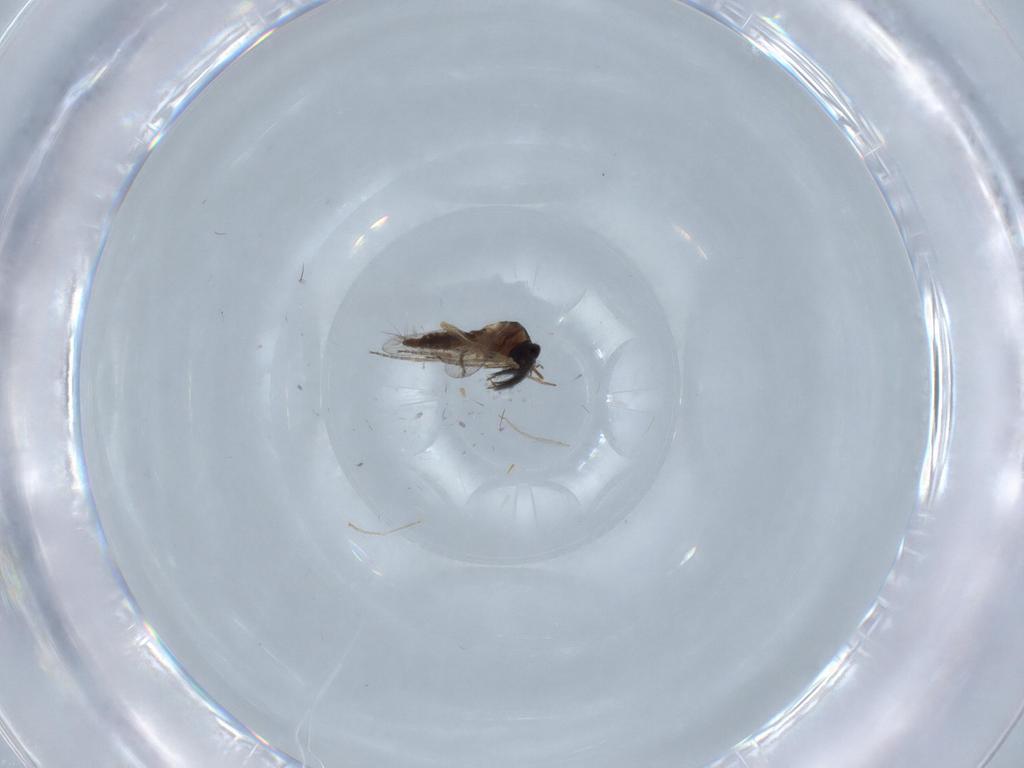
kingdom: Animalia
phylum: Arthropoda
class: Insecta
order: Diptera
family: Ceratopogonidae
